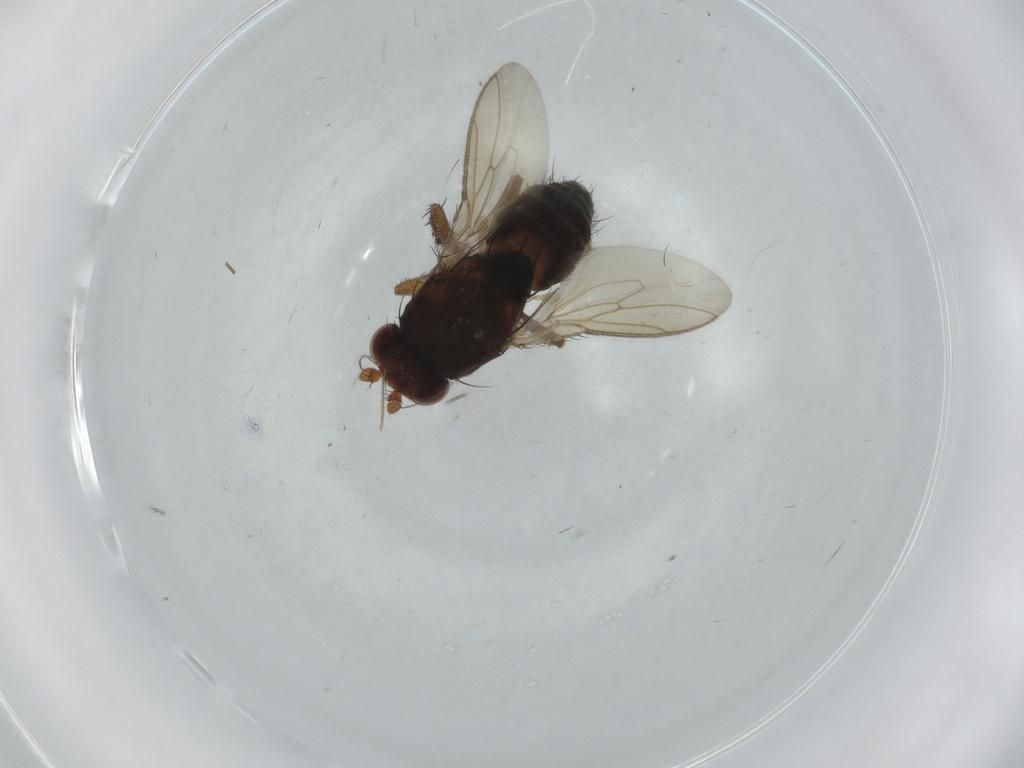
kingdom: Animalia
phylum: Arthropoda
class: Insecta
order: Diptera
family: Sphaeroceridae
